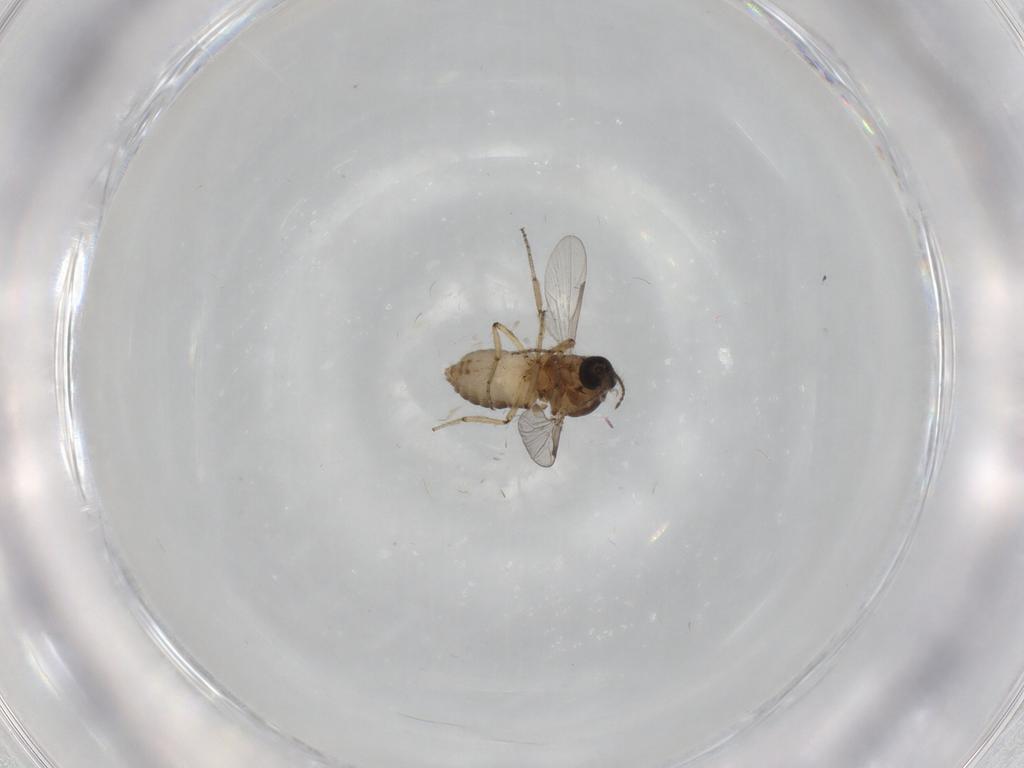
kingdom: Animalia
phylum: Arthropoda
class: Insecta
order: Diptera
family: Ceratopogonidae
